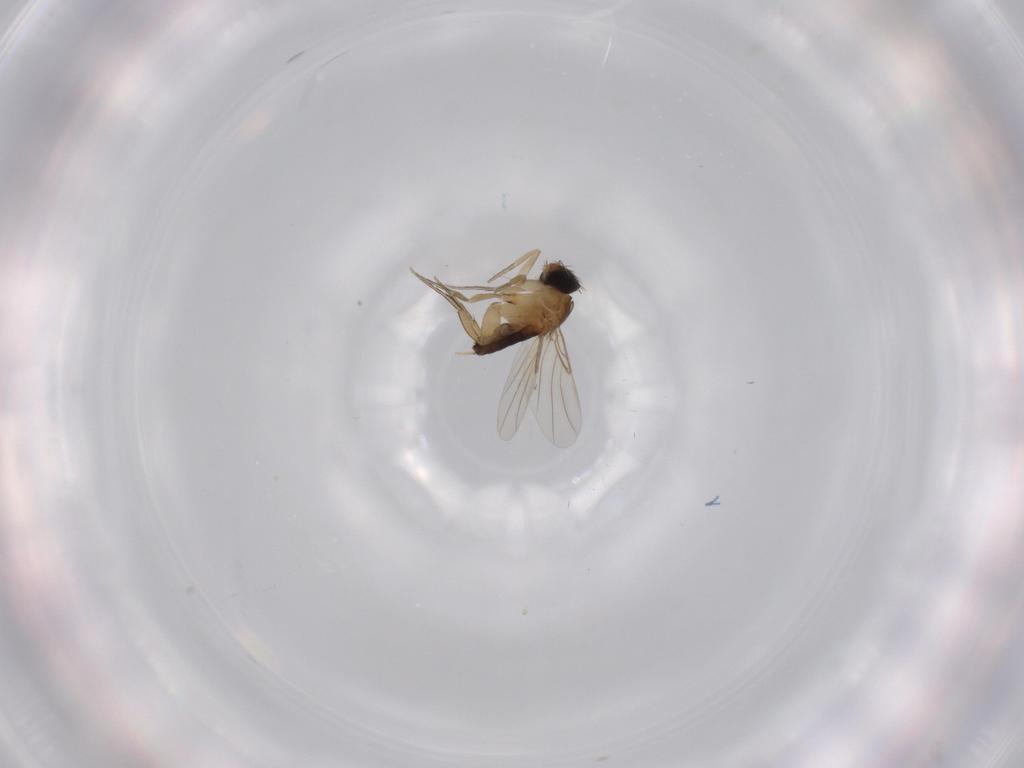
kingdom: Animalia
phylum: Arthropoda
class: Insecta
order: Diptera
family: Phoridae
